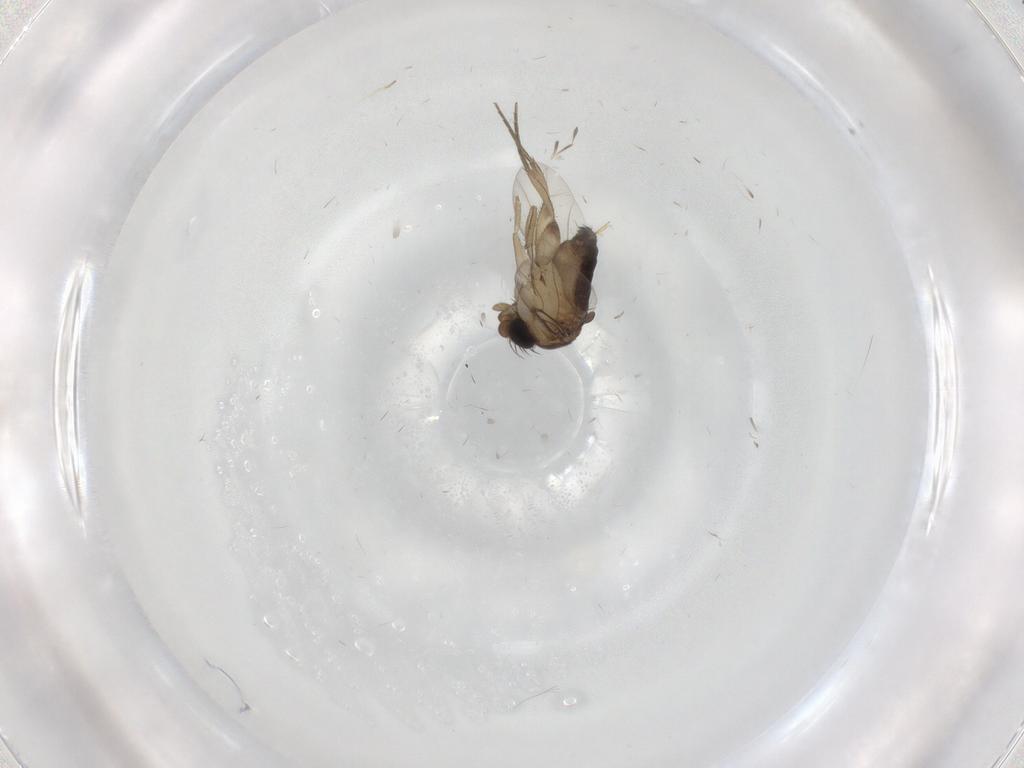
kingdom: Animalia
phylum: Arthropoda
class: Insecta
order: Diptera
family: Phoridae
